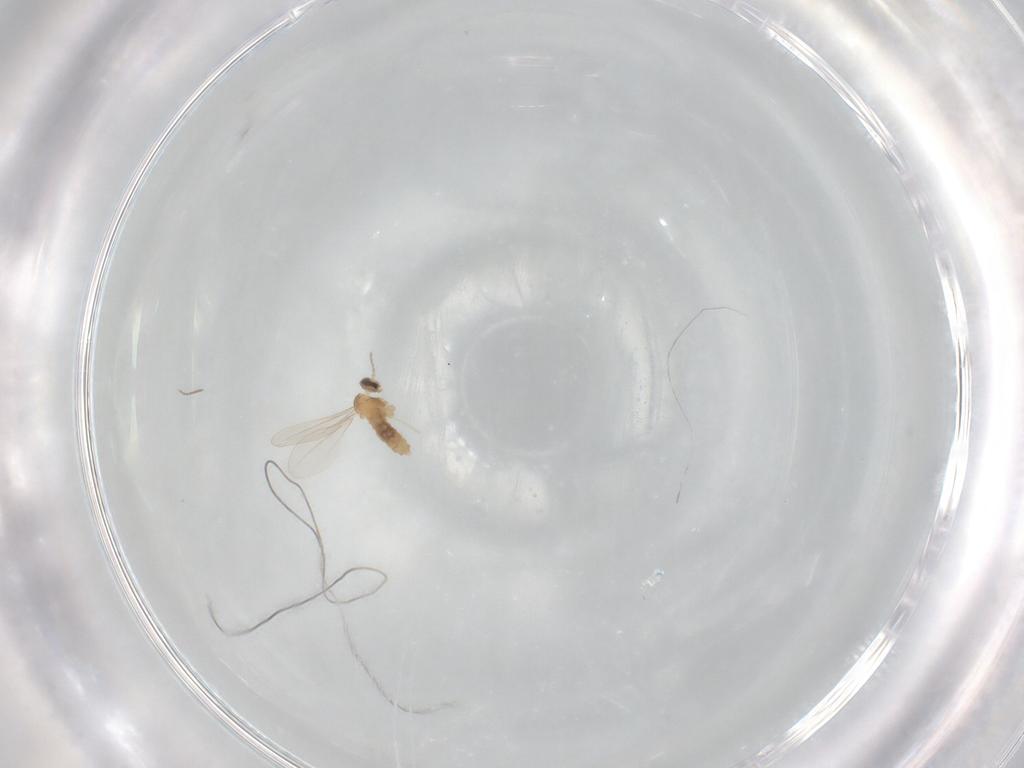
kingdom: Animalia
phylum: Arthropoda
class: Insecta
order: Diptera
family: Cecidomyiidae
